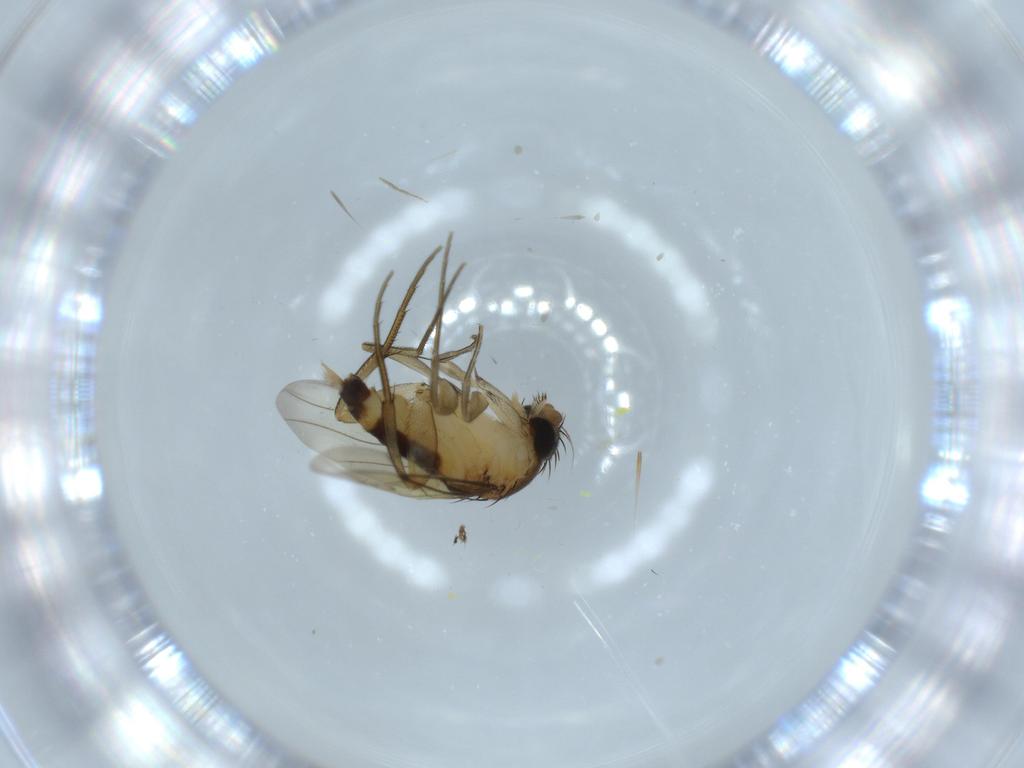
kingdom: Animalia
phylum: Arthropoda
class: Insecta
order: Diptera
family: Phoridae
